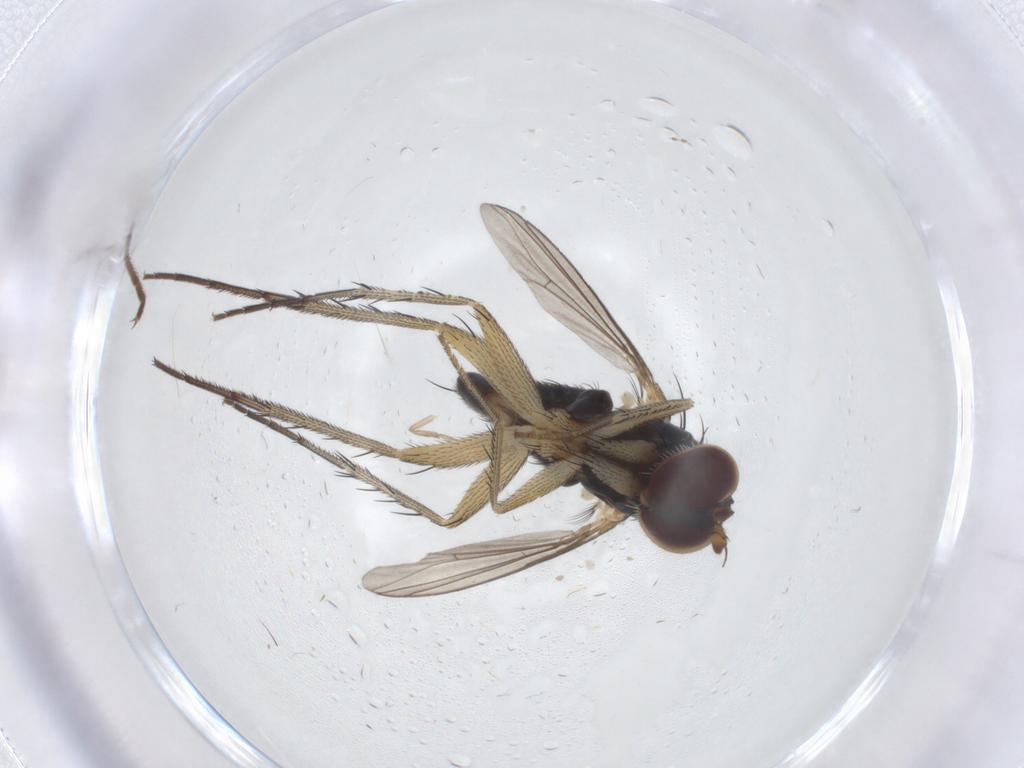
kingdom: Animalia
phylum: Arthropoda
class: Insecta
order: Diptera
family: Dolichopodidae
